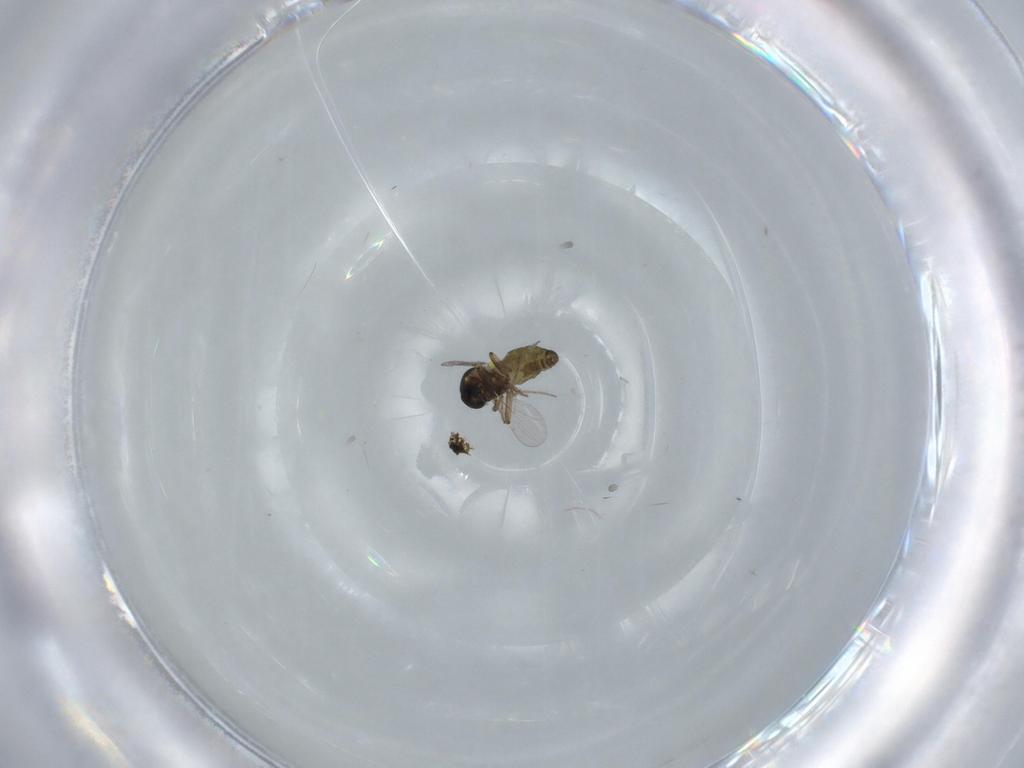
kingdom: Animalia
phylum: Arthropoda
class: Insecta
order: Diptera
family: Ceratopogonidae
